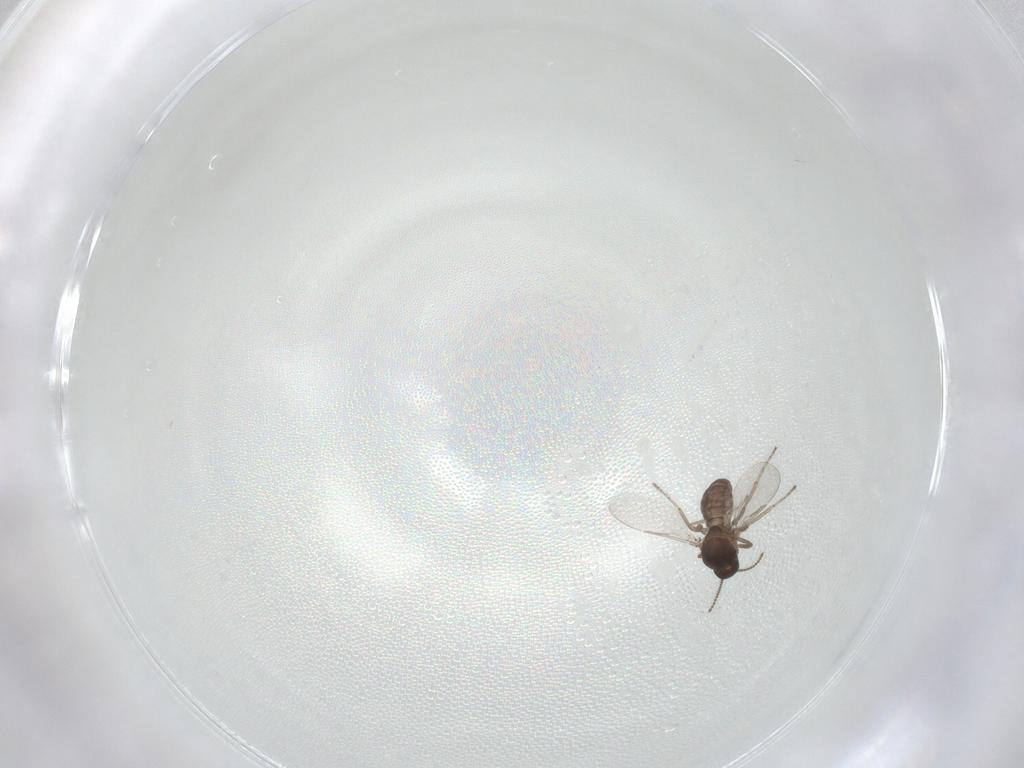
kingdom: Animalia
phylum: Arthropoda
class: Insecta
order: Diptera
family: Ceratopogonidae
